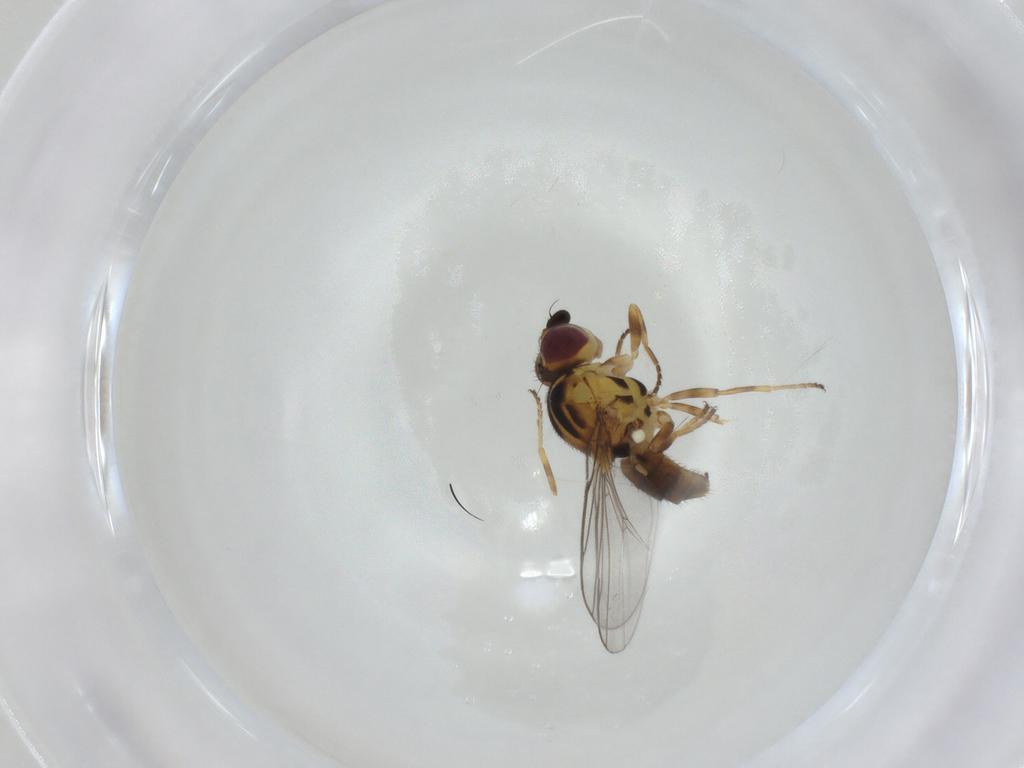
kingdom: Animalia
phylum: Arthropoda
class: Insecta
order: Diptera
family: Chloropidae
